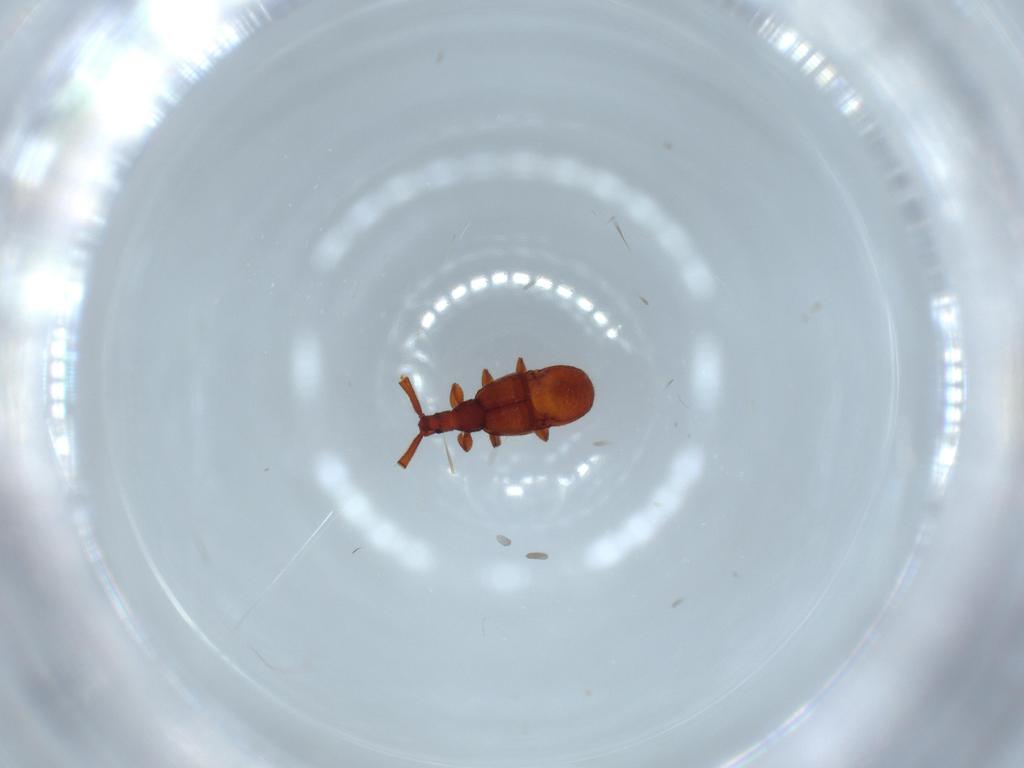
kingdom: Animalia
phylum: Arthropoda
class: Insecta
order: Coleoptera
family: Staphylinidae
